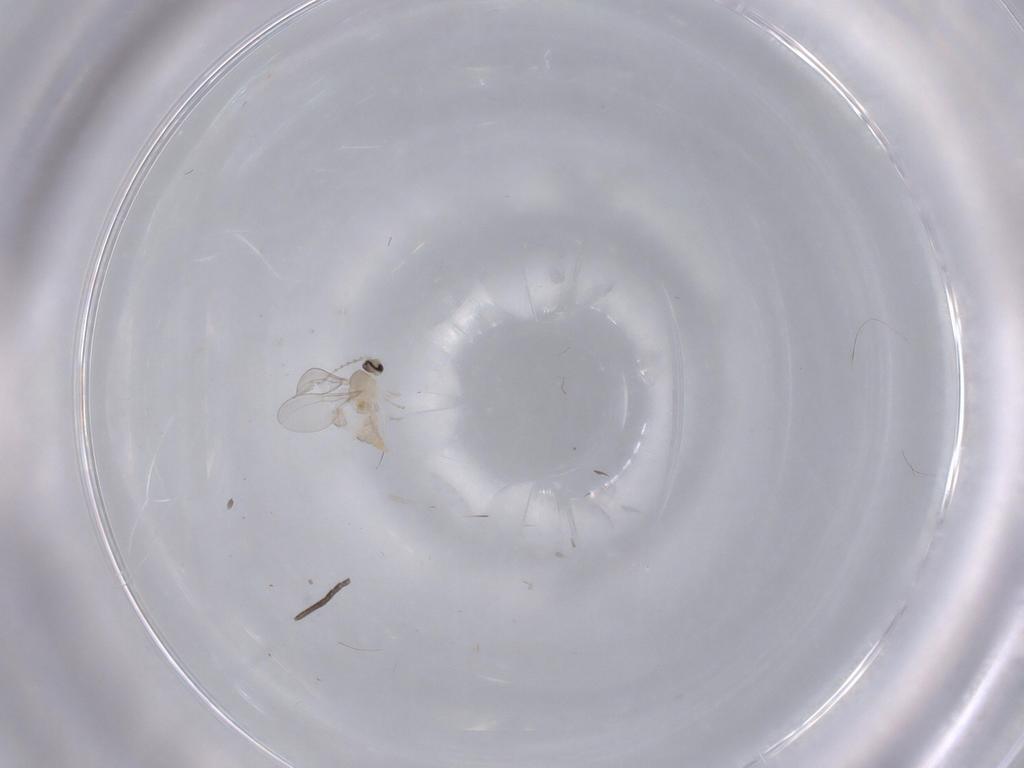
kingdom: Animalia
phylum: Arthropoda
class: Insecta
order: Diptera
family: Cecidomyiidae
